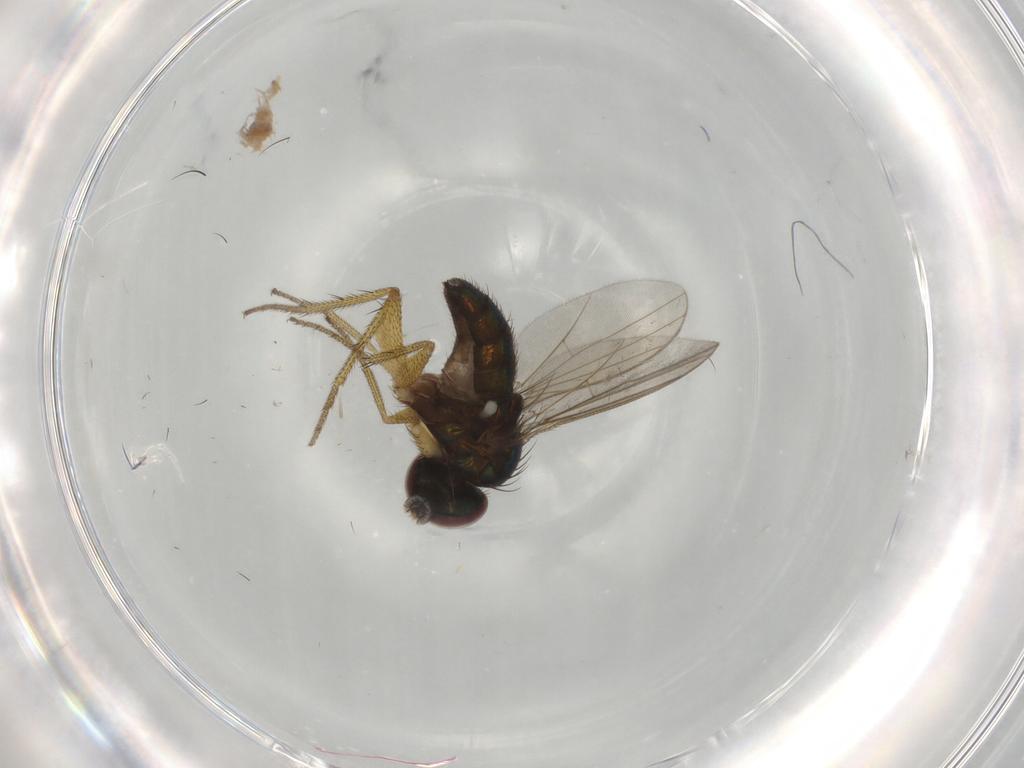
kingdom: Animalia
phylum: Arthropoda
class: Insecta
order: Diptera
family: Dolichopodidae
